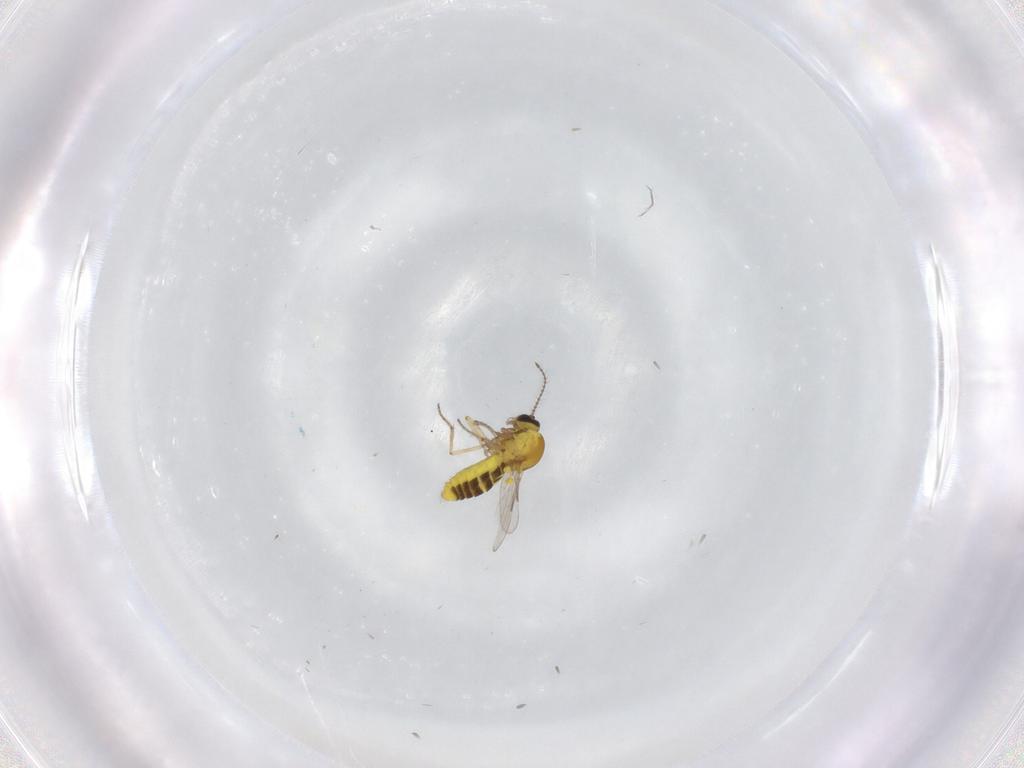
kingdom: Animalia
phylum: Arthropoda
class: Insecta
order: Diptera
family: Ceratopogonidae
